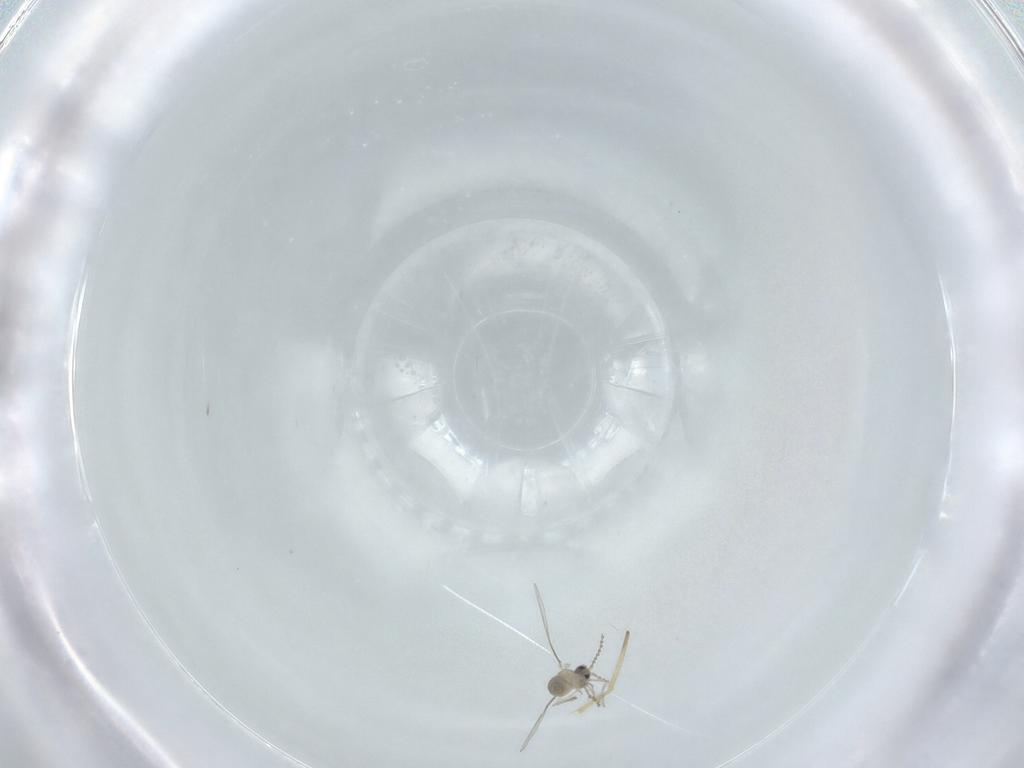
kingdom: Animalia
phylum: Arthropoda
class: Insecta
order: Diptera
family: Cecidomyiidae
